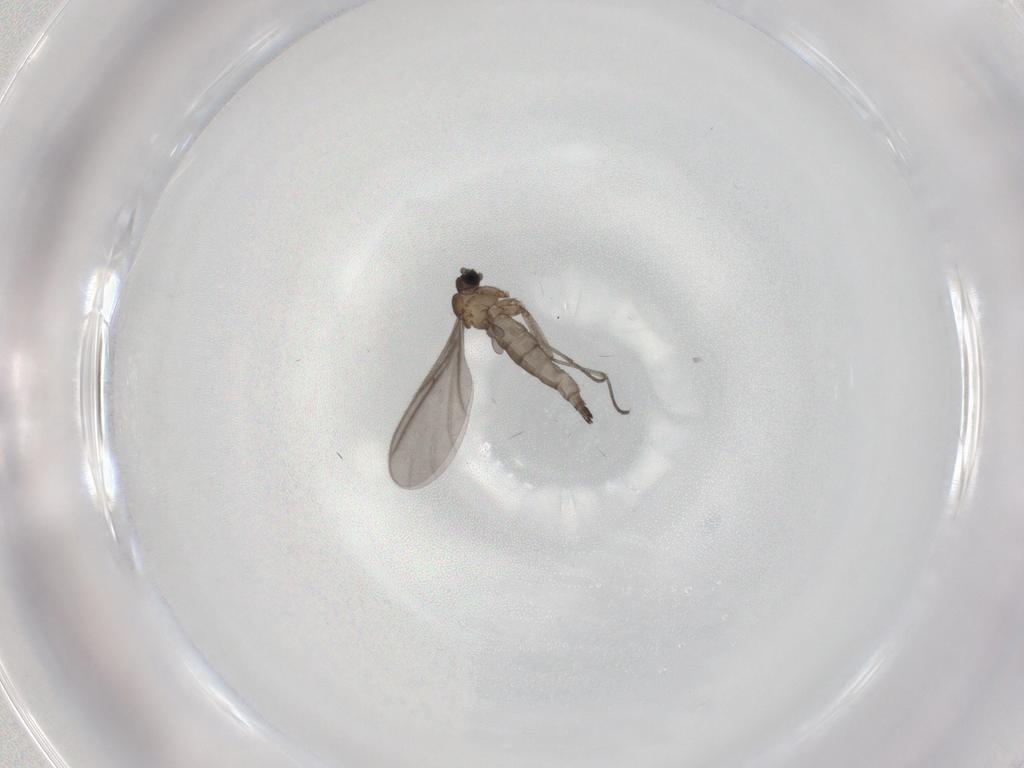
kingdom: Animalia
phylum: Arthropoda
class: Insecta
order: Diptera
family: Sciaridae
